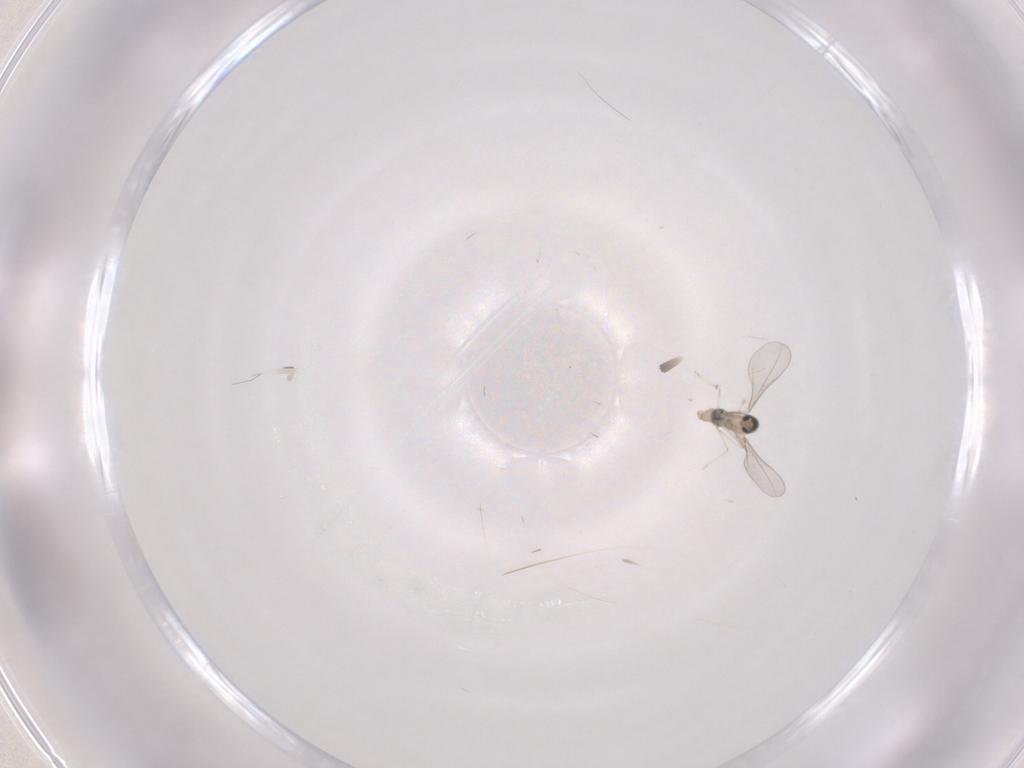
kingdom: Animalia
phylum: Arthropoda
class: Insecta
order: Diptera
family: Cecidomyiidae
